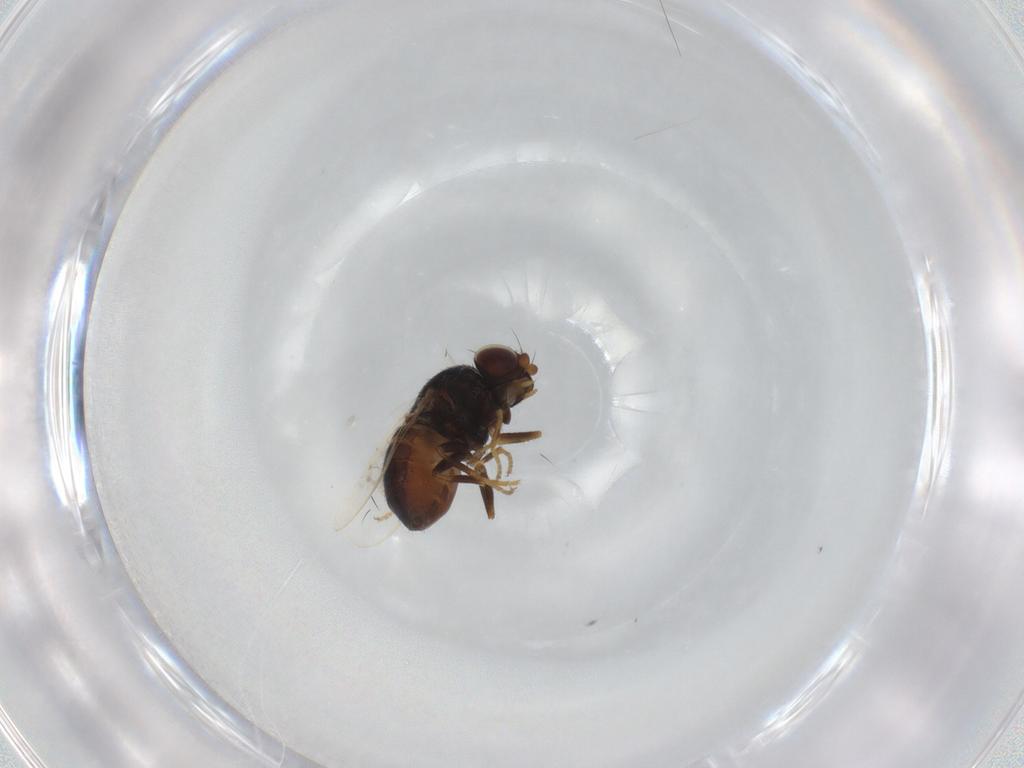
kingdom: Animalia
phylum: Arthropoda
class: Insecta
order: Diptera
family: Chloropidae
